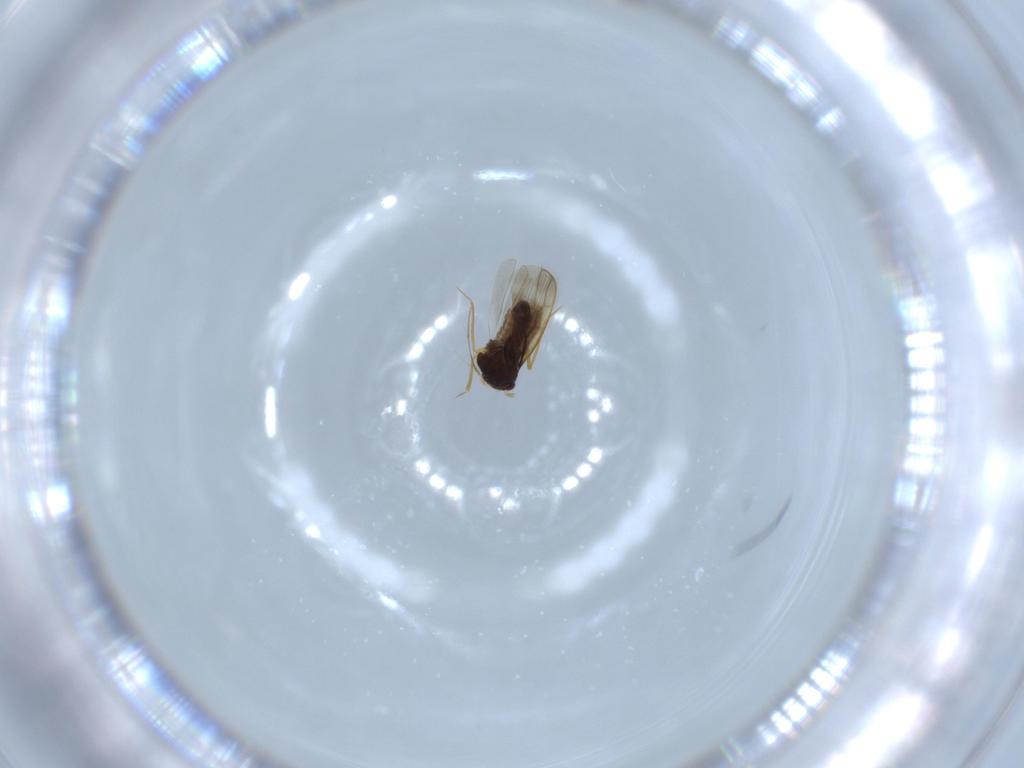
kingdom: Animalia
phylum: Arthropoda
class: Insecta
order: Hemiptera
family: Schizopteridae
